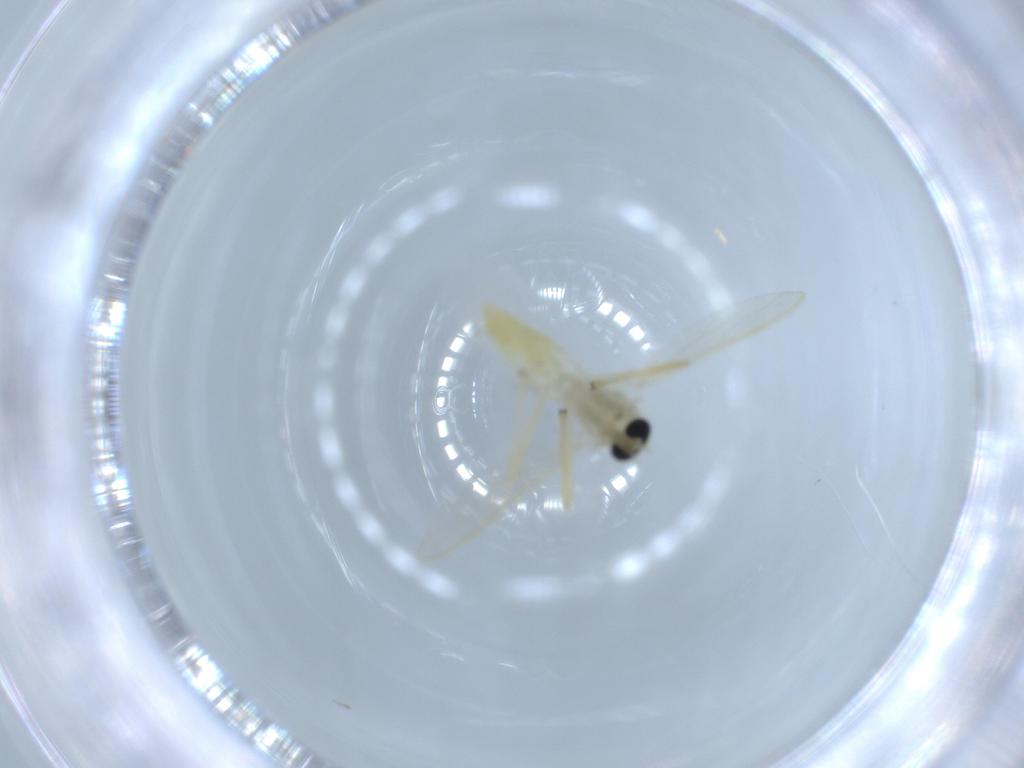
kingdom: Animalia
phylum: Arthropoda
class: Insecta
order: Diptera
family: Chironomidae
